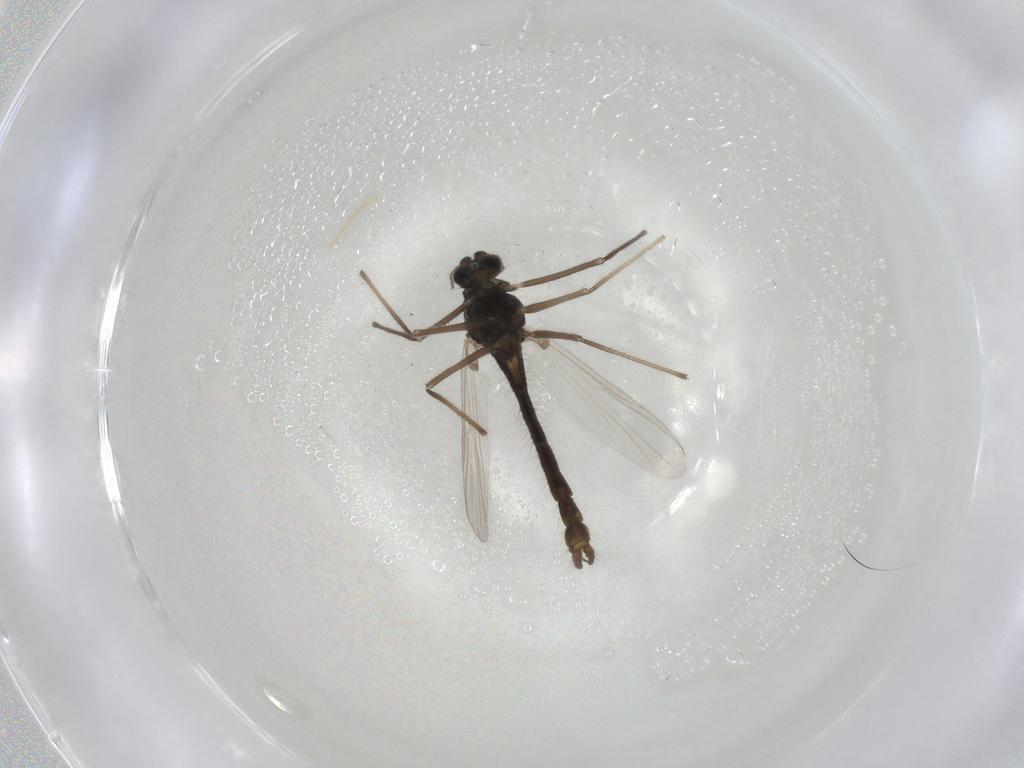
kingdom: Animalia
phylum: Arthropoda
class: Insecta
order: Diptera
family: Chironomidae
